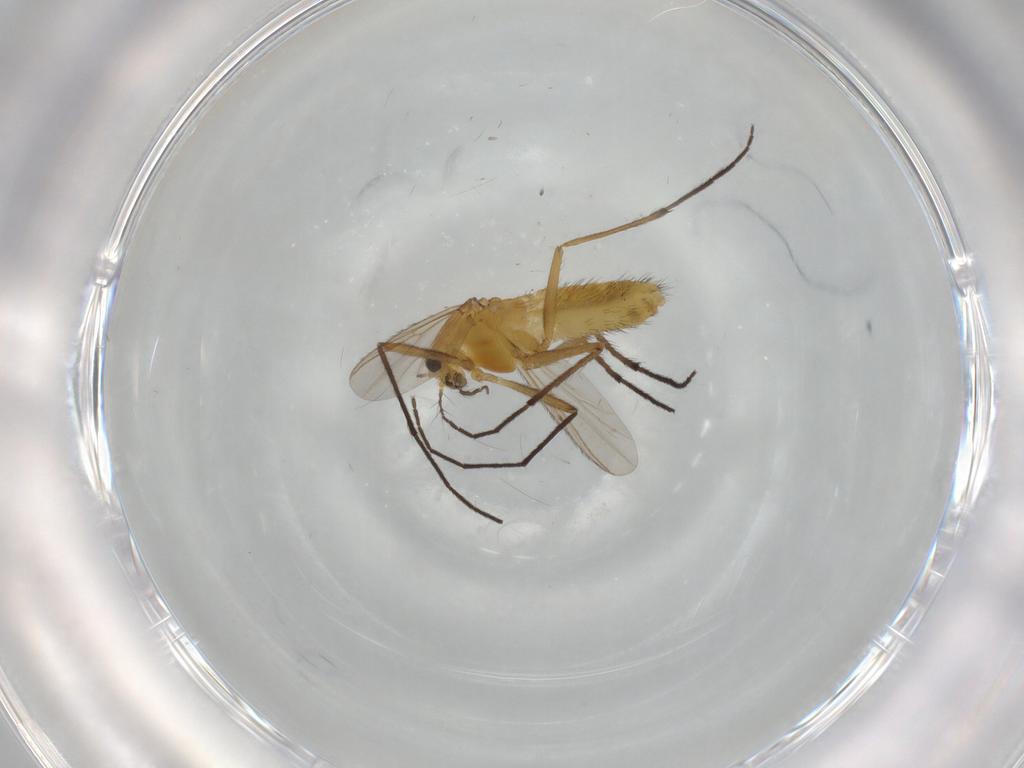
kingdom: Animalia
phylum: Arthropoda
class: Insecta
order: Diptera
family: Chironomidae
